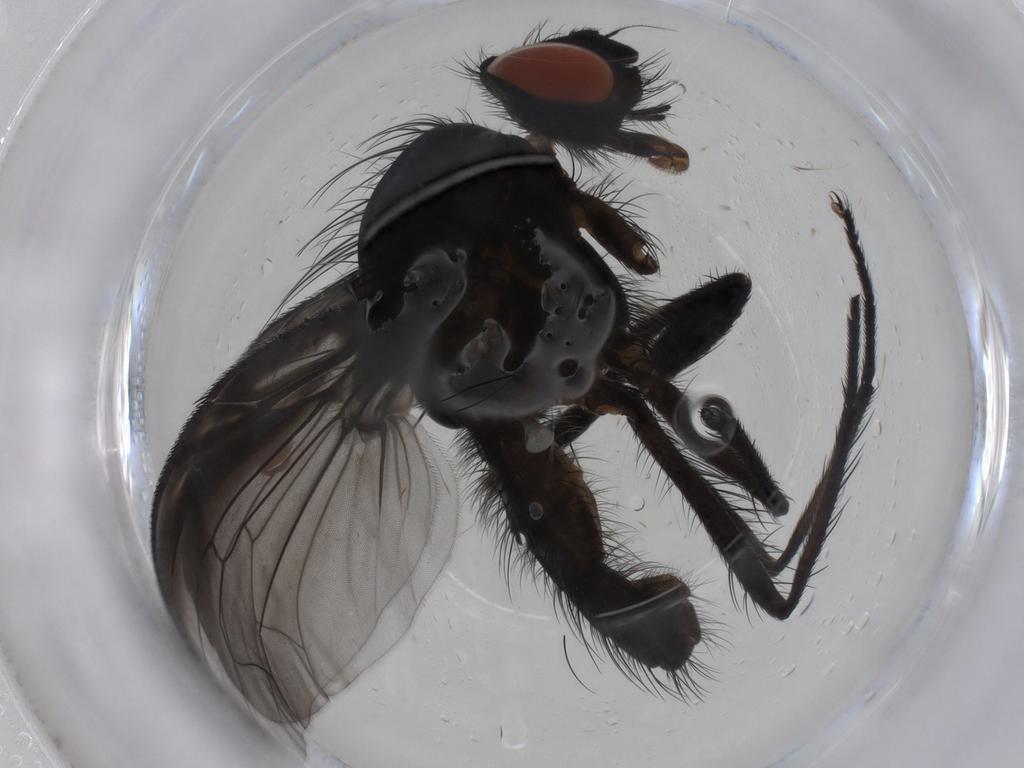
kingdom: Animalia
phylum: Arthropoda
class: Insecta
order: Diptera
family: Anthomyiidae
